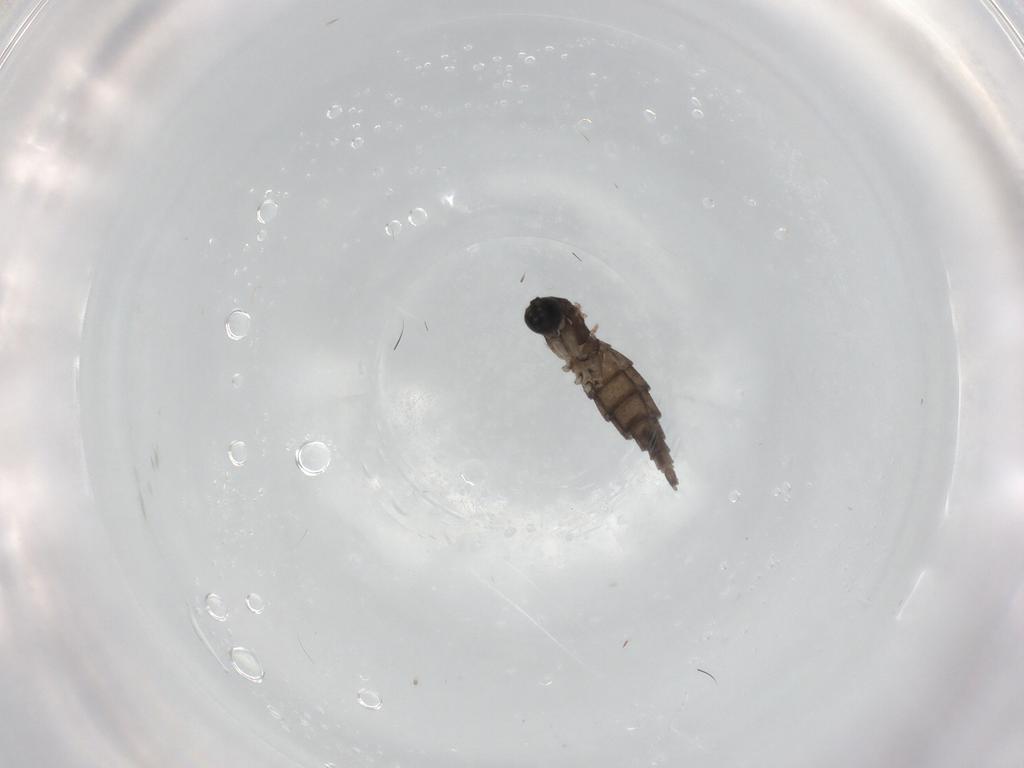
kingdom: Animalia
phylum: Arthropoda
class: Insecta
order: Diptera
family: Sciaridae
